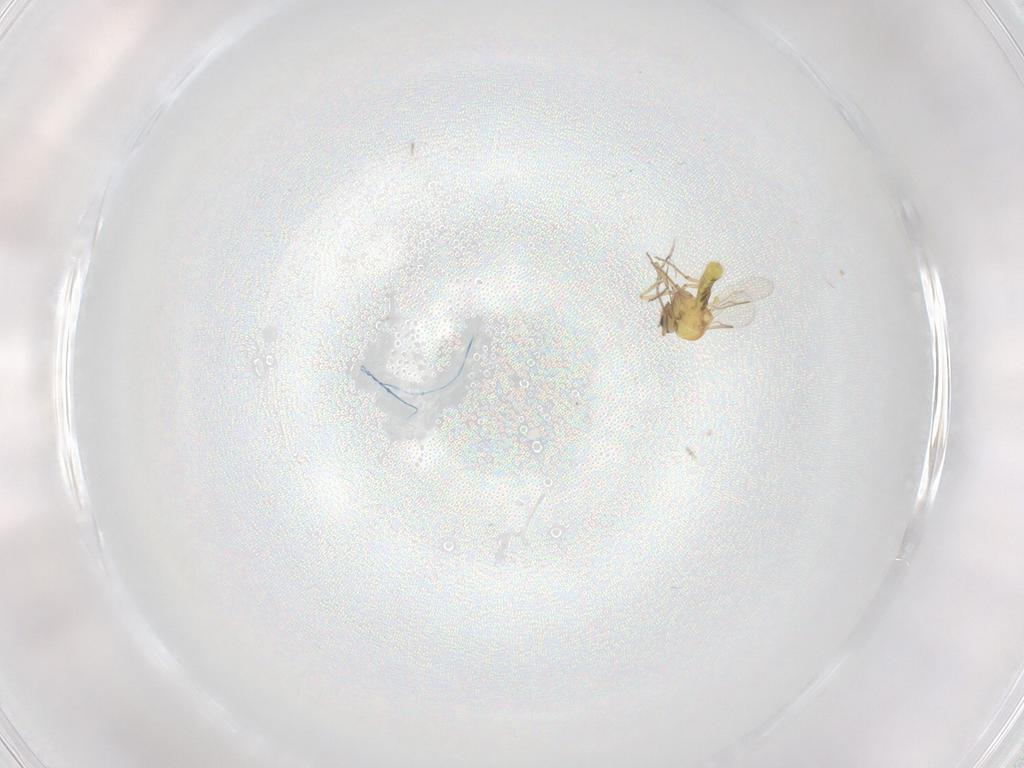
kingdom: Animalia
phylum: Arthropoda
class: Insecta
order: Diptera
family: Ceratopogonidae
